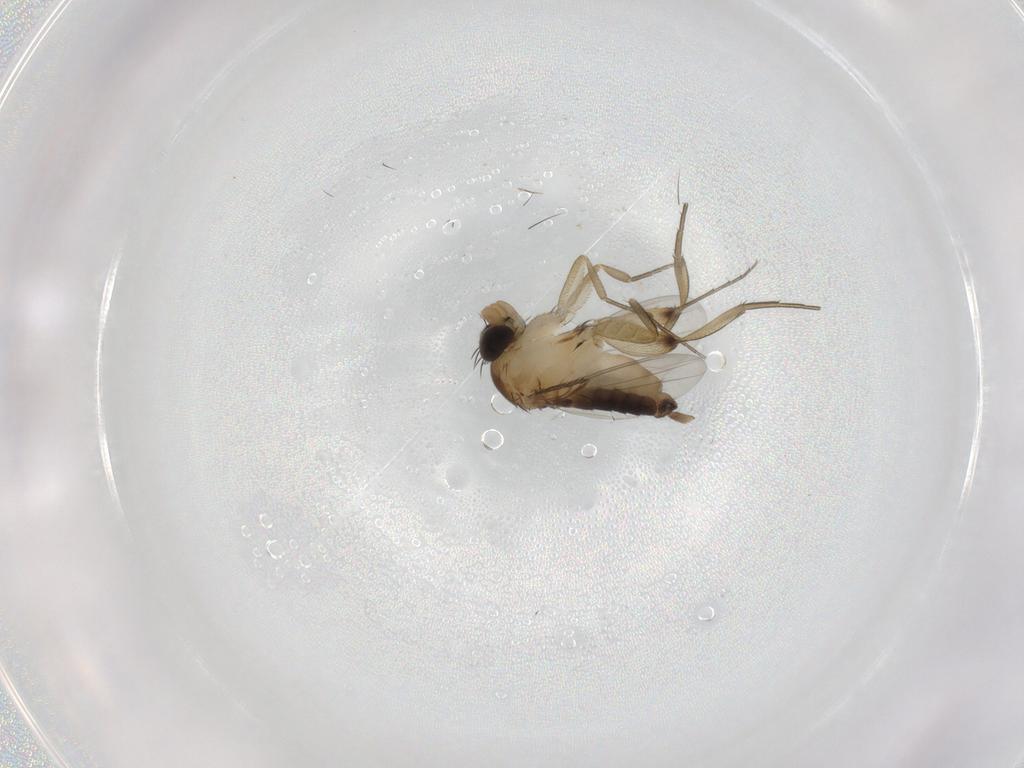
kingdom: Animalia
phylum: Arthropoda
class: Insecta
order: Diptera
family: Phoridae
